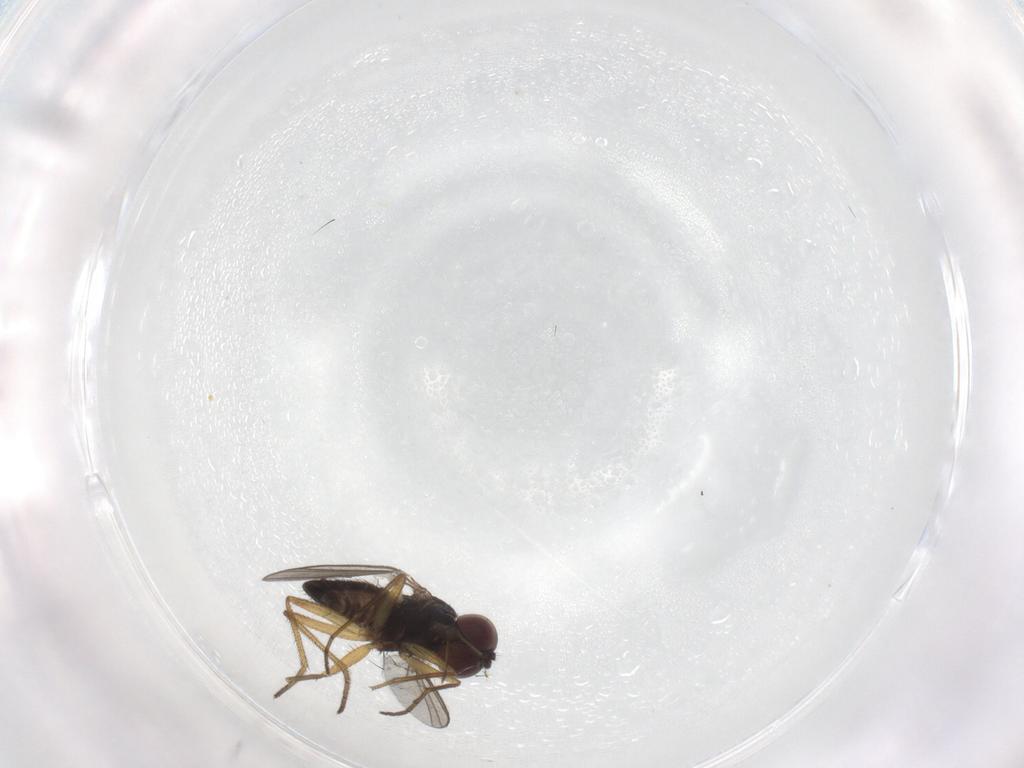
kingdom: Animalia
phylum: Arthropoda
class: Insecta
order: Diptera
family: Dolichopodidae
